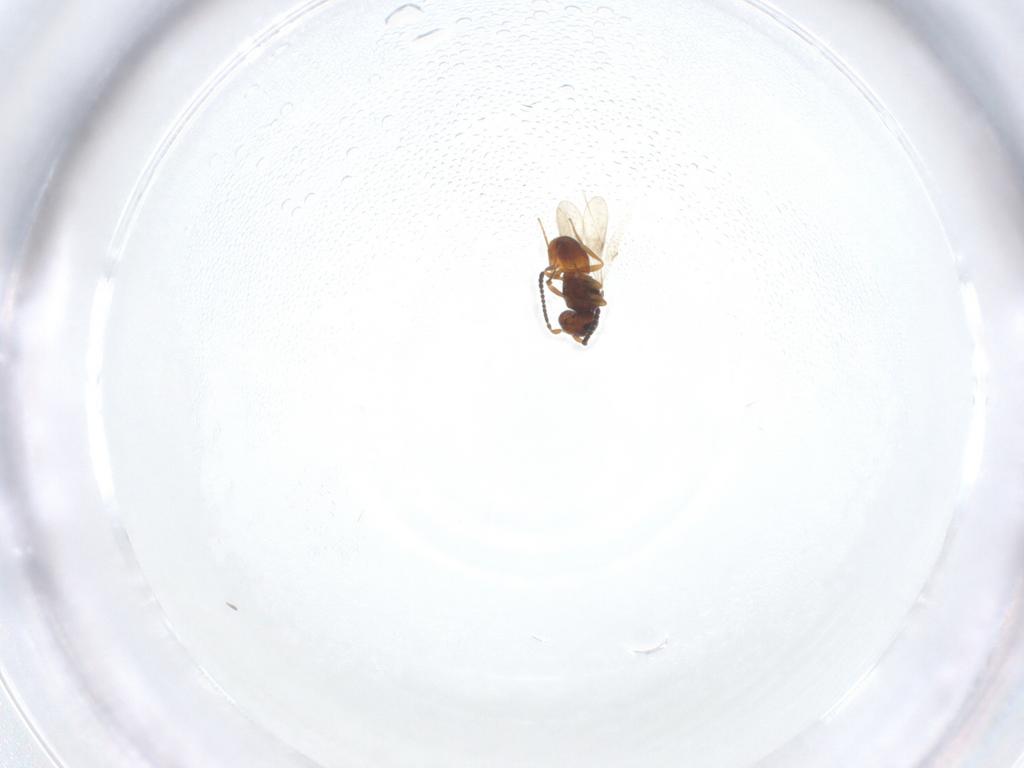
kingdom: Animalia
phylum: Arthropoda
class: Insecta
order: Hymenoptera
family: Scelionidae
